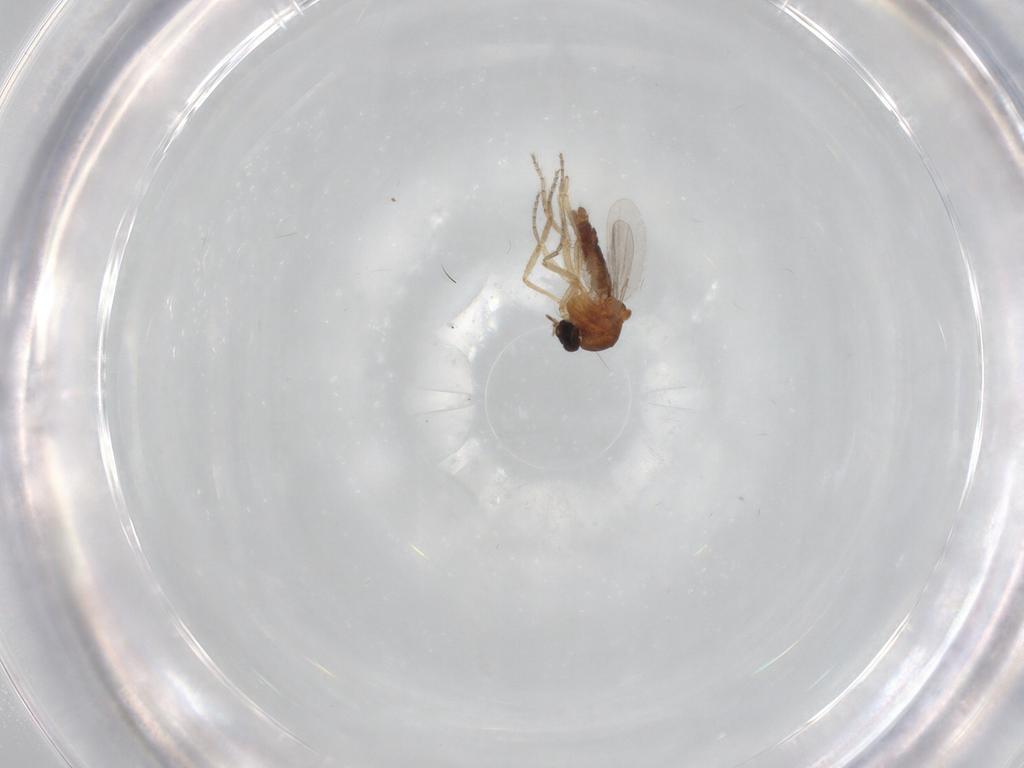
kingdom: Animalia
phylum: Arthropoda
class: Insecta
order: Diptera
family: Ceratopogonidae
